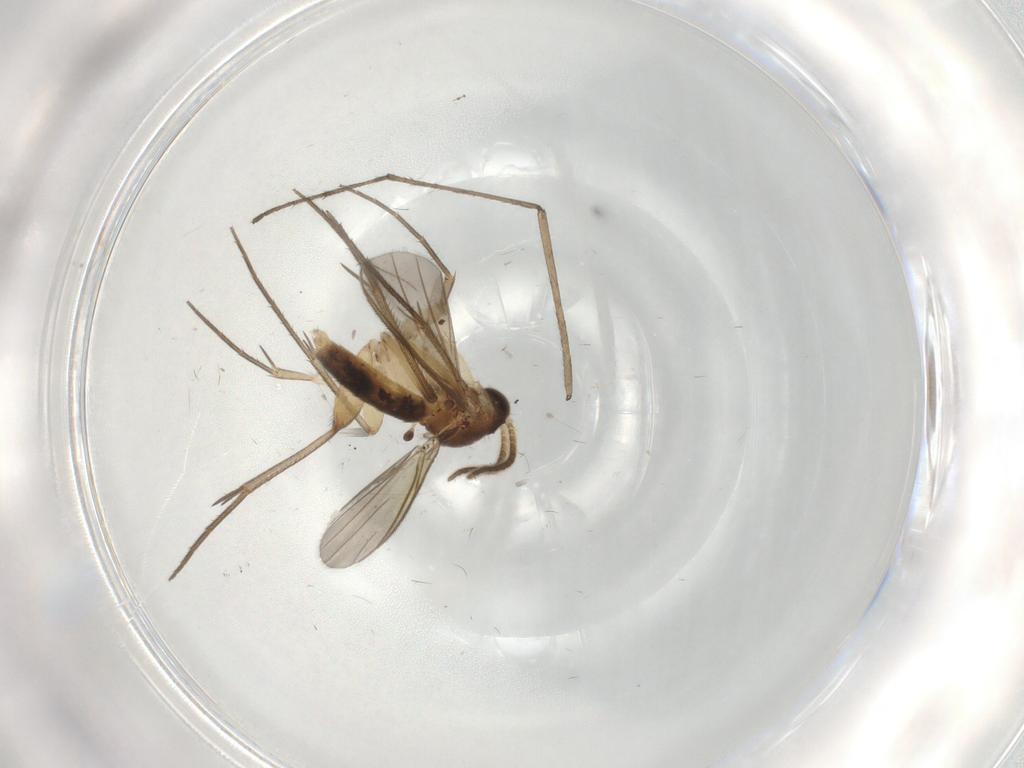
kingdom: Animalia
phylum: Arthropoda
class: Insecta
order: Diptera
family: Mycetophilidae
